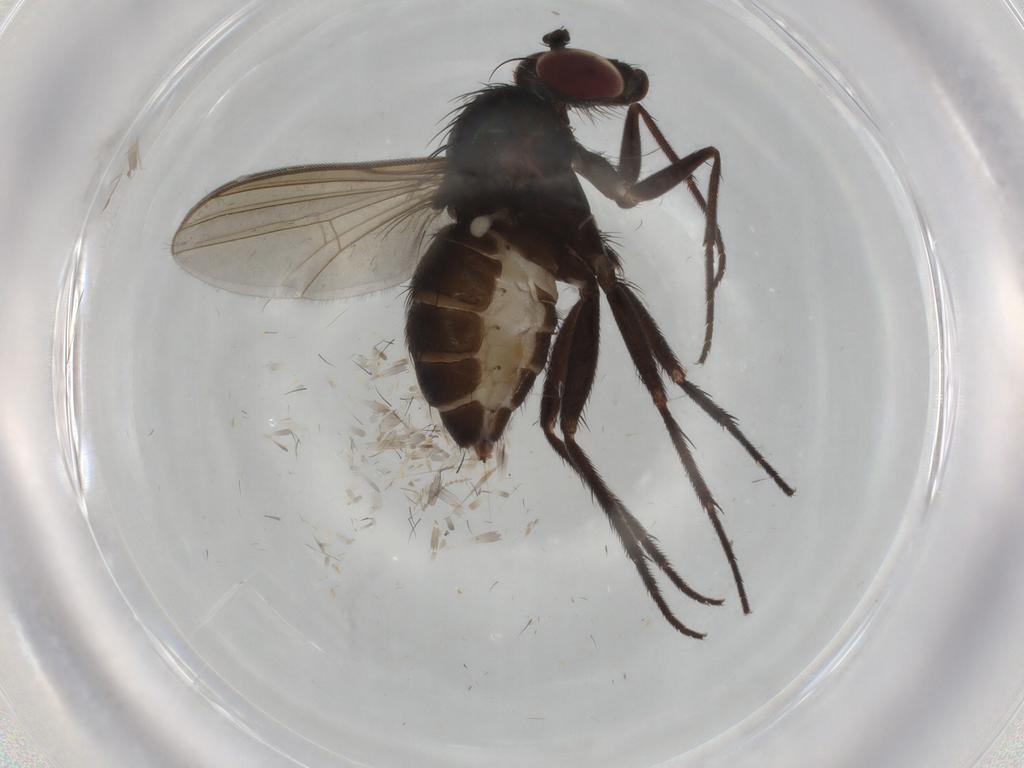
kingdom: Animalia
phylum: Arthropoda
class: Insecta
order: Diptera
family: Dolichopodidae
